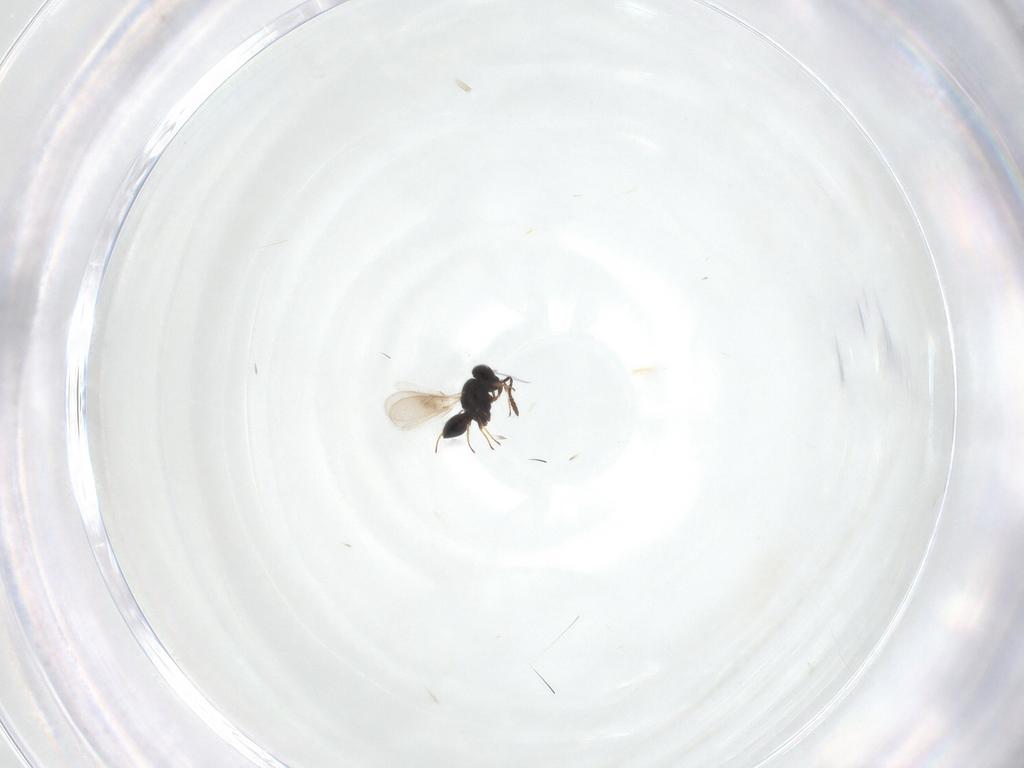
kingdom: Animalia
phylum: Arthropoda
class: Insecta
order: Hymenoptera
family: Scelionidae
